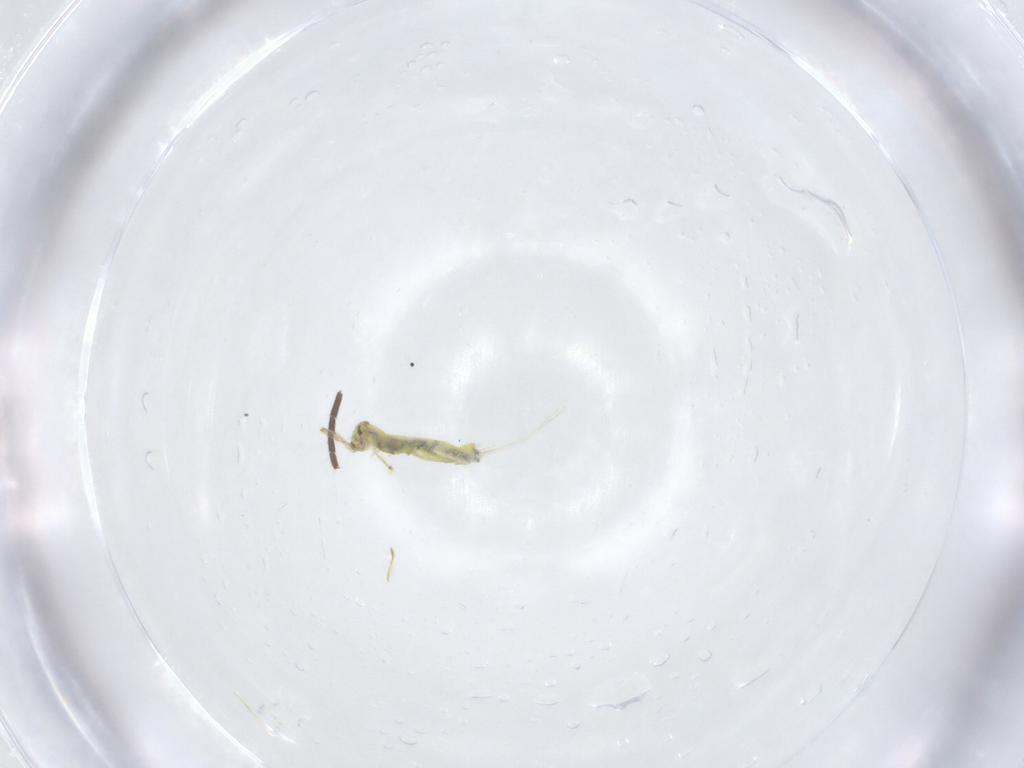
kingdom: Animalia
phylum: Arthropoda
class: Insecta
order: Diptera
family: Sciaridae
